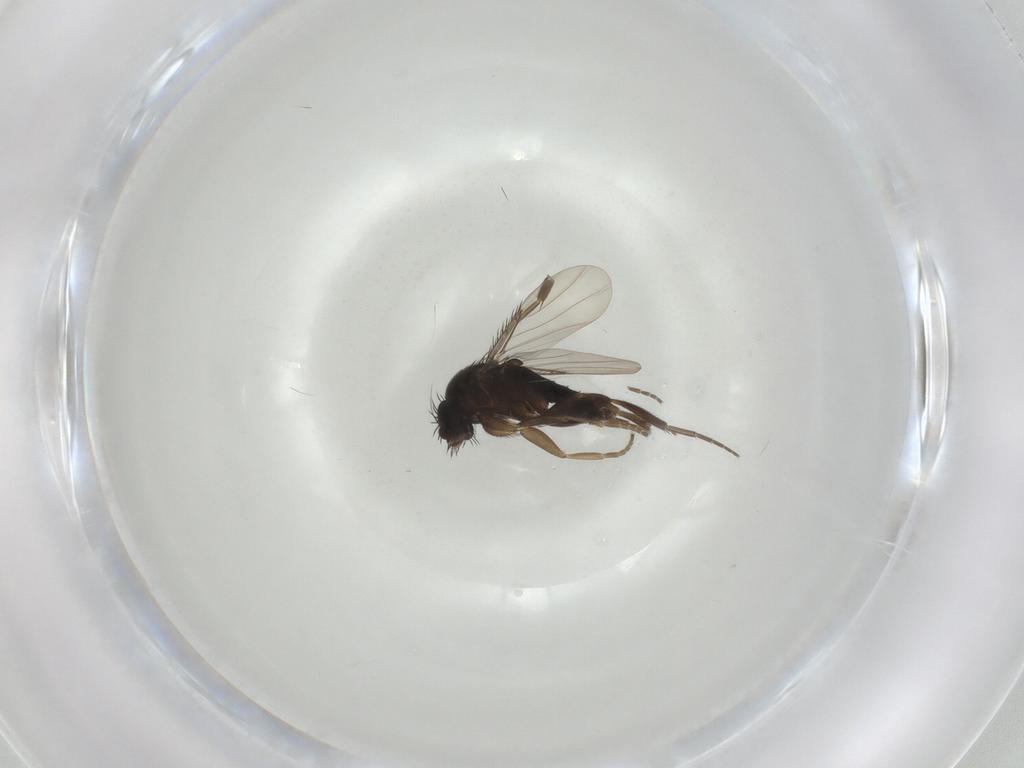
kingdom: Animalia
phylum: Arthropoda
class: Insecta
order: Diptera
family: Phoridae
